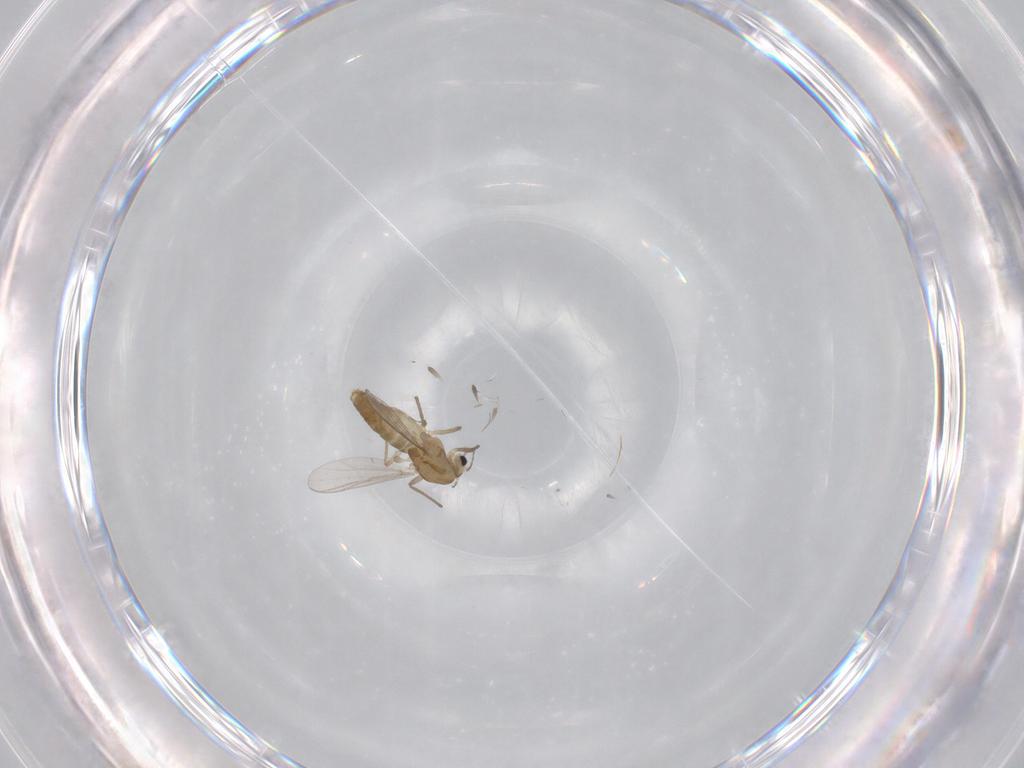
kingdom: Animalia
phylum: Arthropoda
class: Insecta
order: Diptera
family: Chironomidae
